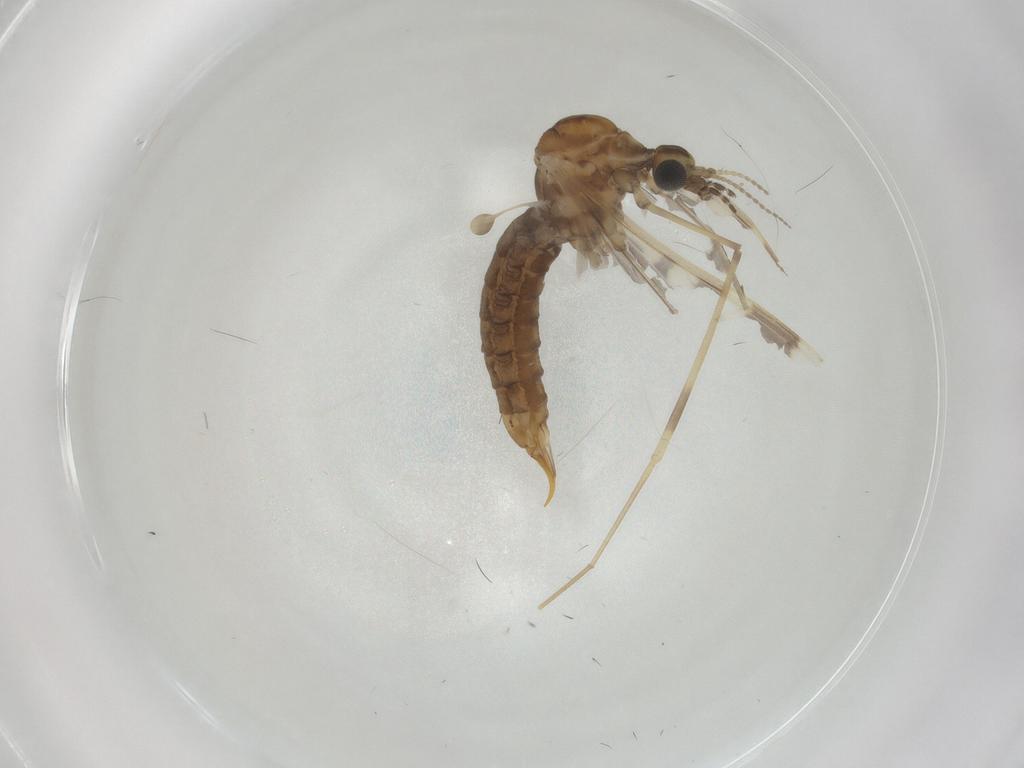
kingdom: Animalia
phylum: Arthropoda
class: Insecta
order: Diptera
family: Limoniidae
